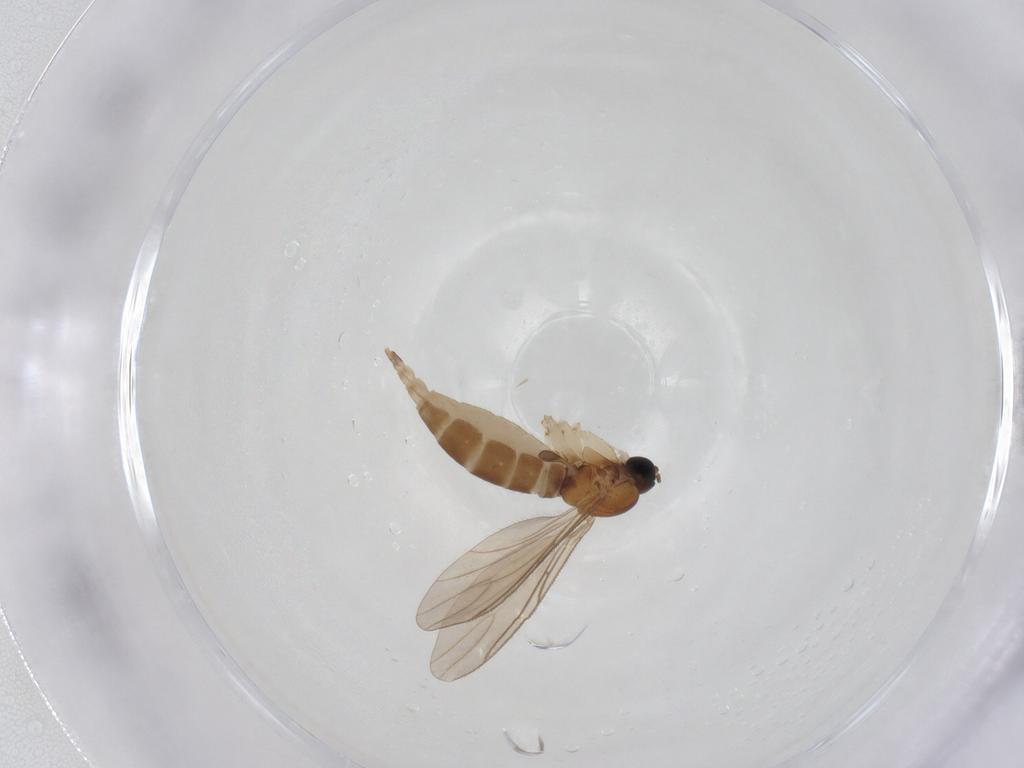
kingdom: Animalia
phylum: Arthropoda
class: Insecta
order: Diptera
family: Sciaridae
